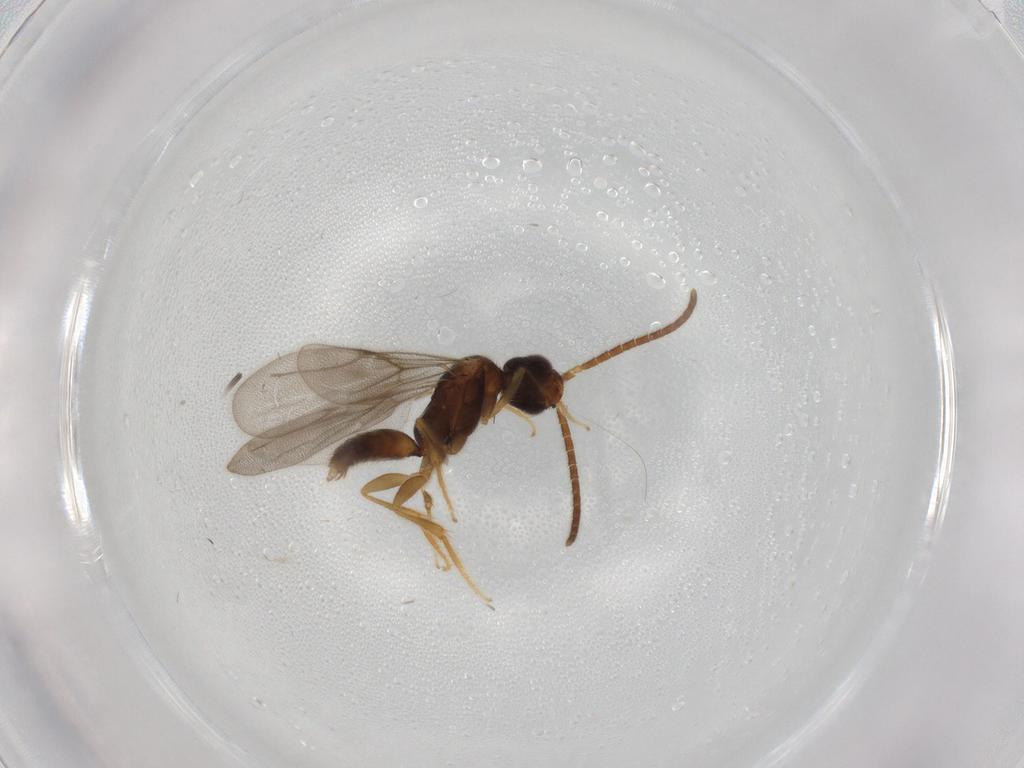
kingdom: Animalia
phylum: Arthropoda
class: Insecta
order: Hymenoptera
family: Bethylidae
